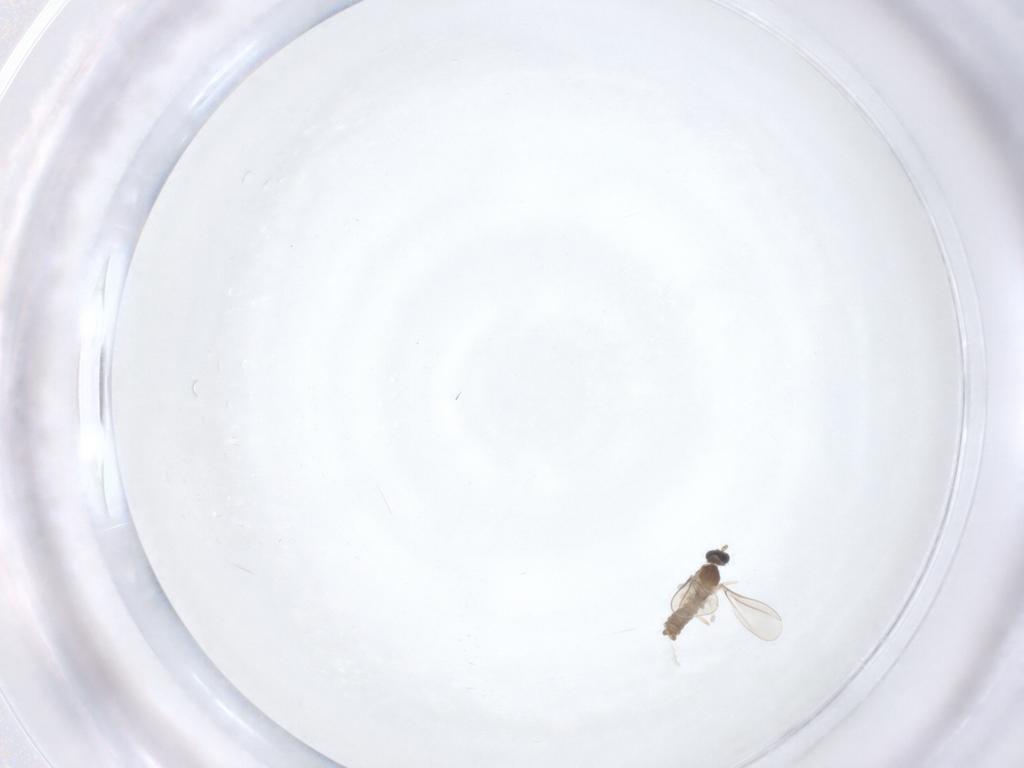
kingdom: Animalia
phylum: Arthropoda
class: Insecta
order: Diptera
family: Cecidomyiidae
